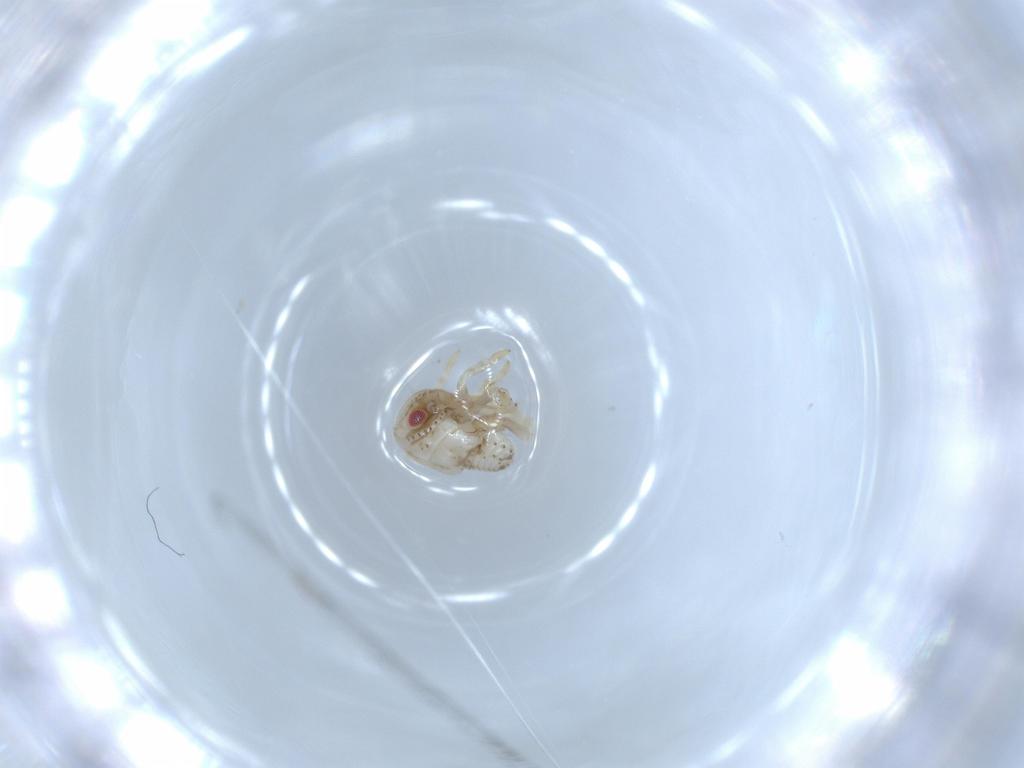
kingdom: Animalia
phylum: Arthropoda
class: Insecta
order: Hemiptera
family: Acanaloniidae
